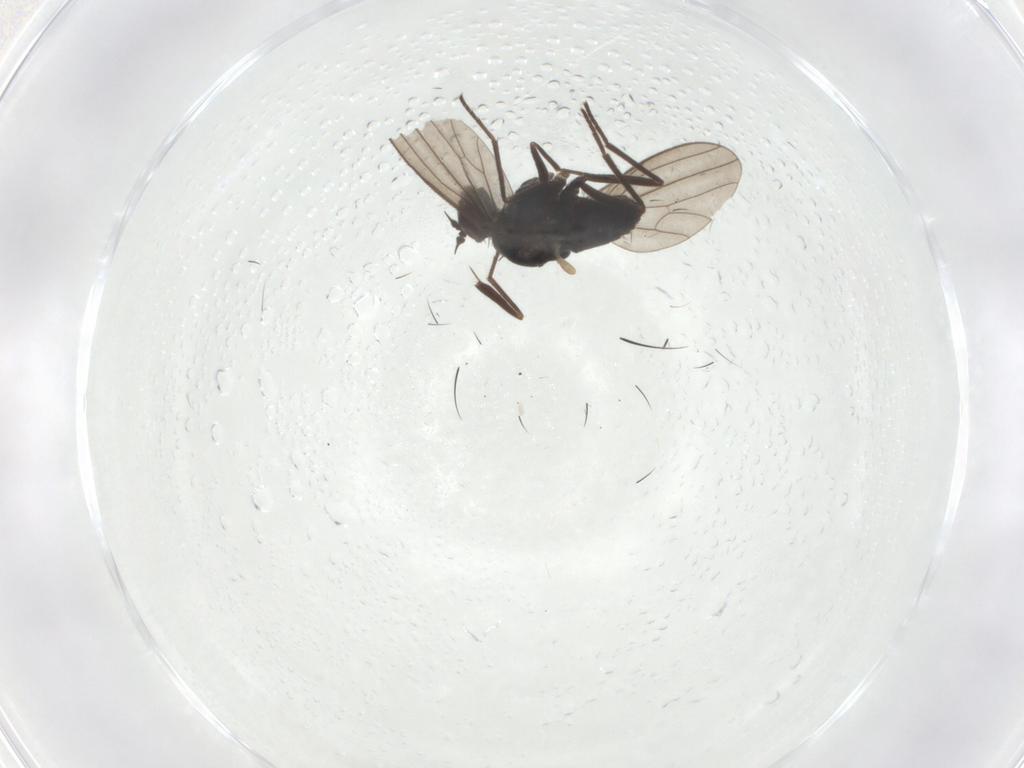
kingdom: Animalia
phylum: Arthropoda
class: Insecta
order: Diptera
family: Dolichopodidae
